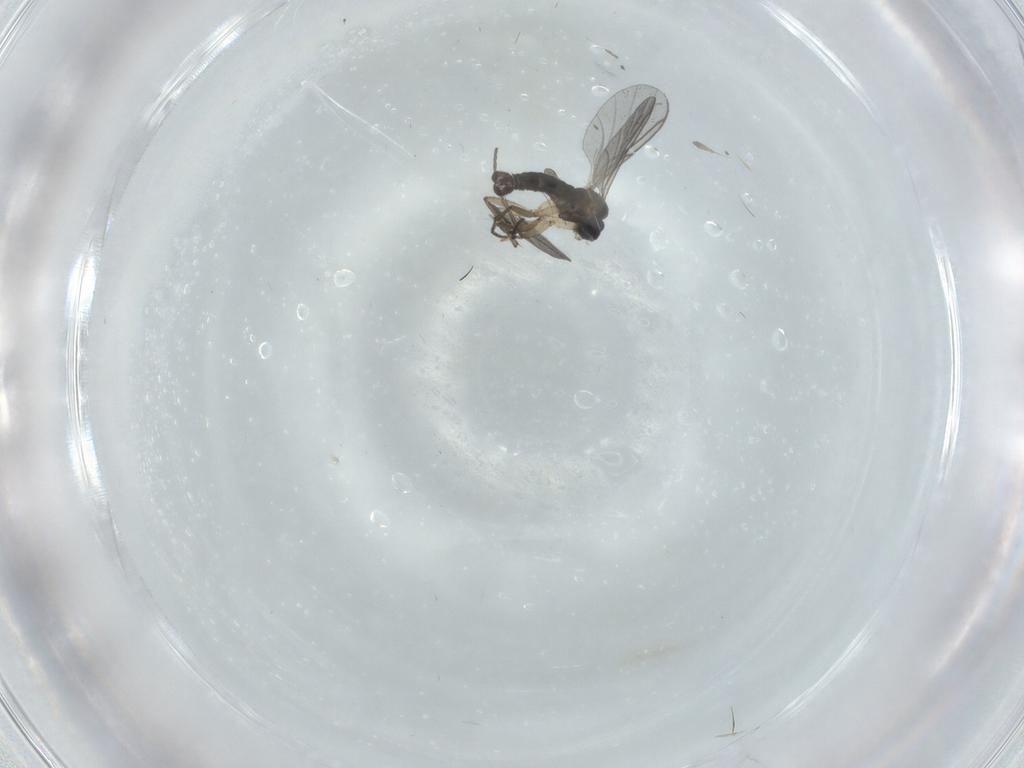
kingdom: Animalia
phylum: Arthropoda
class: Insecta
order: Diptera
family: Sciaridae
